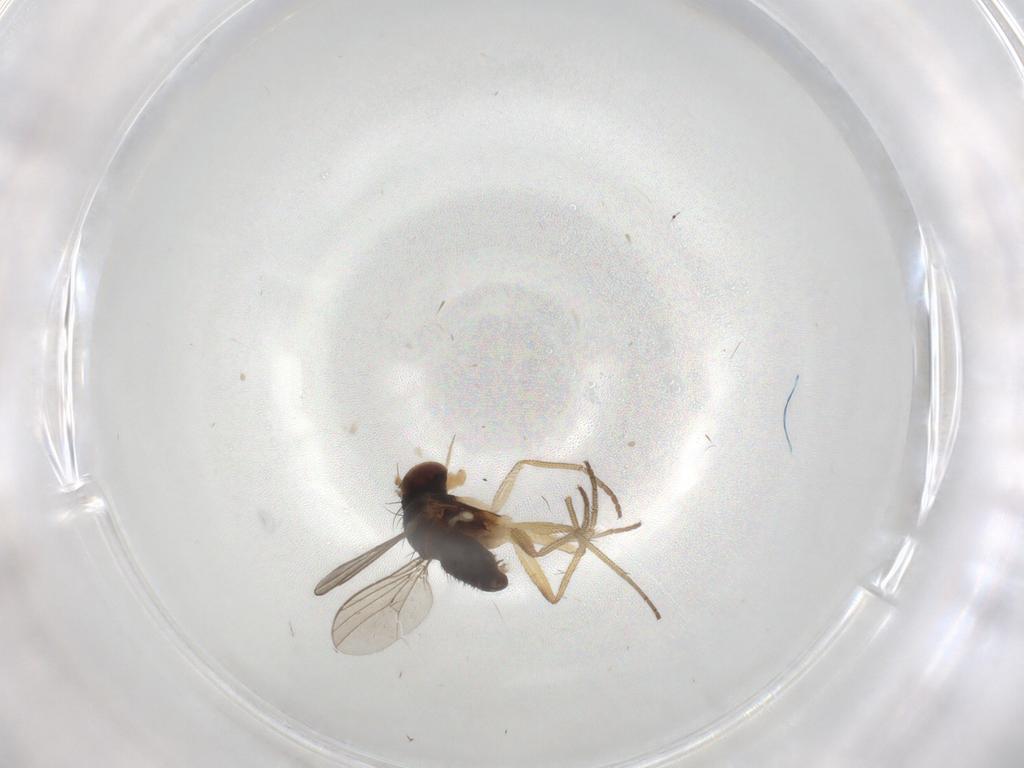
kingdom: Animalia
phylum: Arthropoda
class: Insecta
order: Diptera
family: Dolichopodidae
